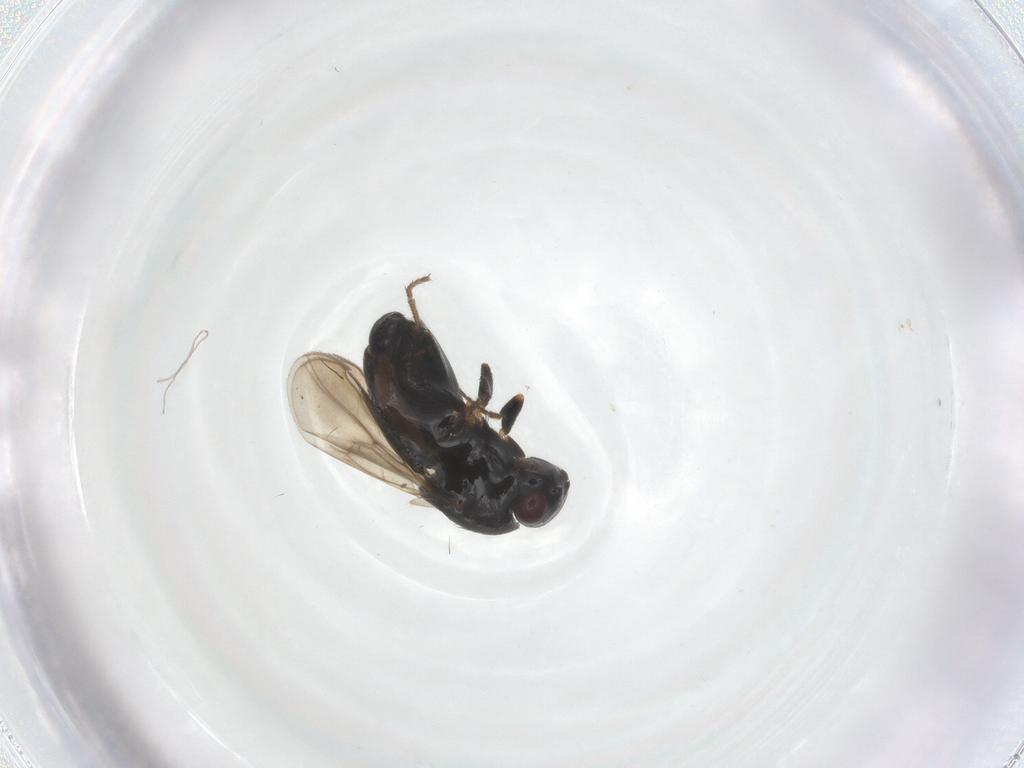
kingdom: Animalia
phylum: Arthropoda
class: Insecta
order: Diptera
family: Sphaeroceridae
